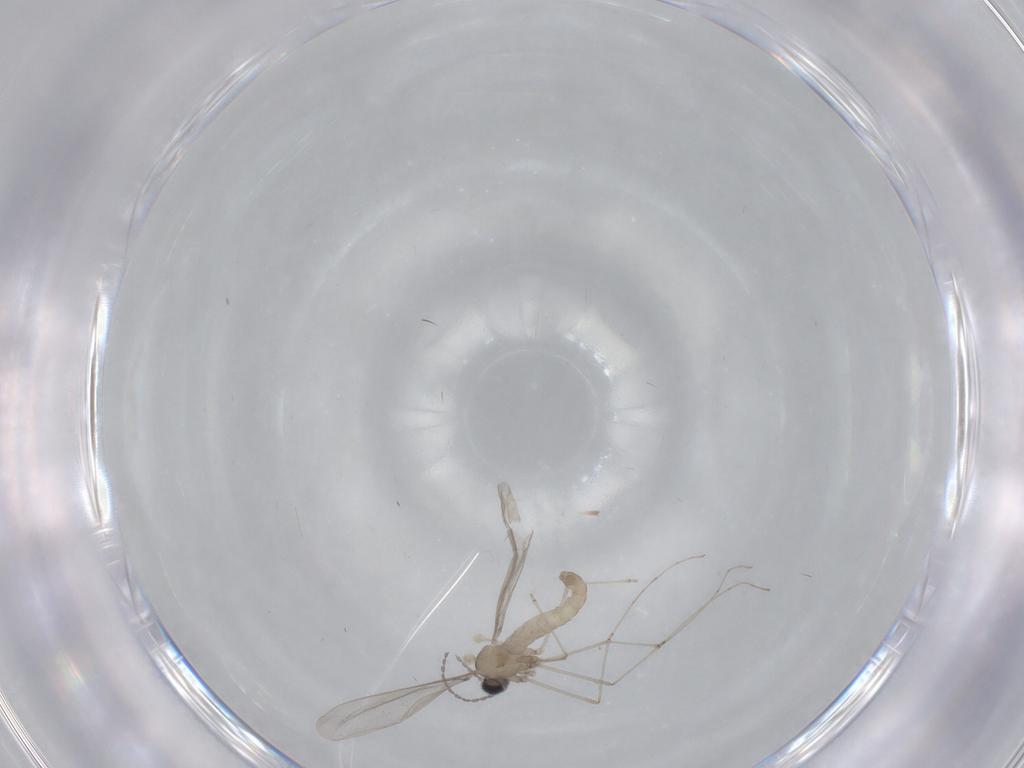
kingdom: Animalia
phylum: Arthropoda
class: Insecta
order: Diptera
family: Cecidomyiidae
